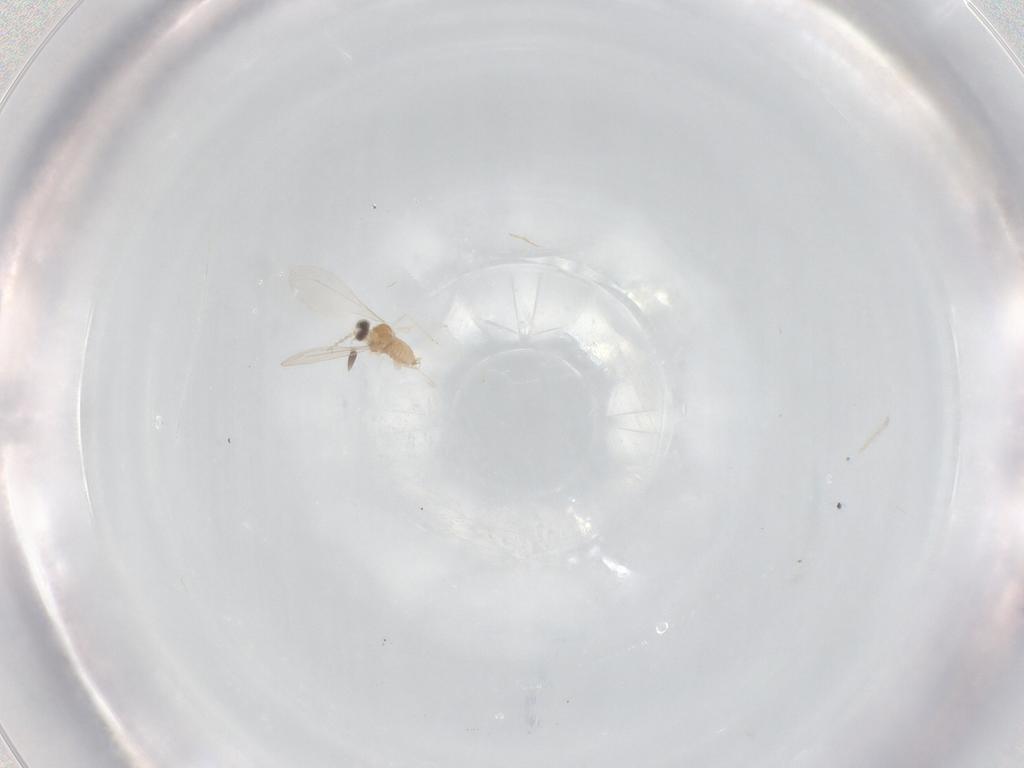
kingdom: Animalia
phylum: Arthropoda
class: Insecta
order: Diptera
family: Cecidomyiidae
